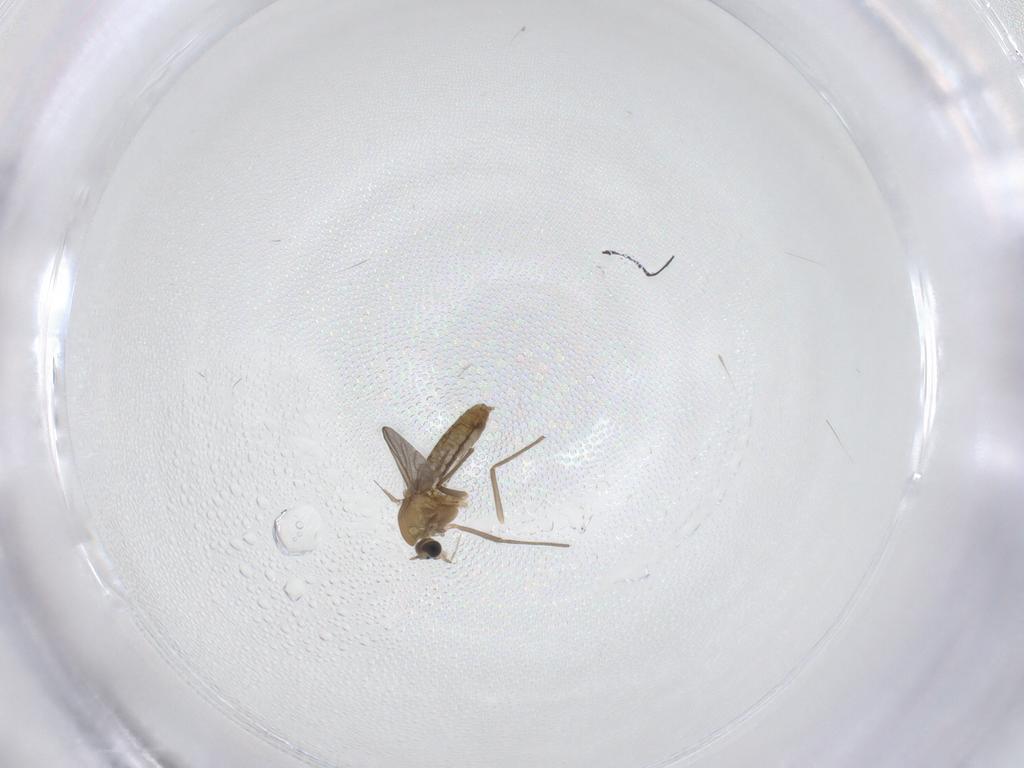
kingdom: Animalia
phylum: Arthropoda
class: Insecta
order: Diptera
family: Chironomidae
